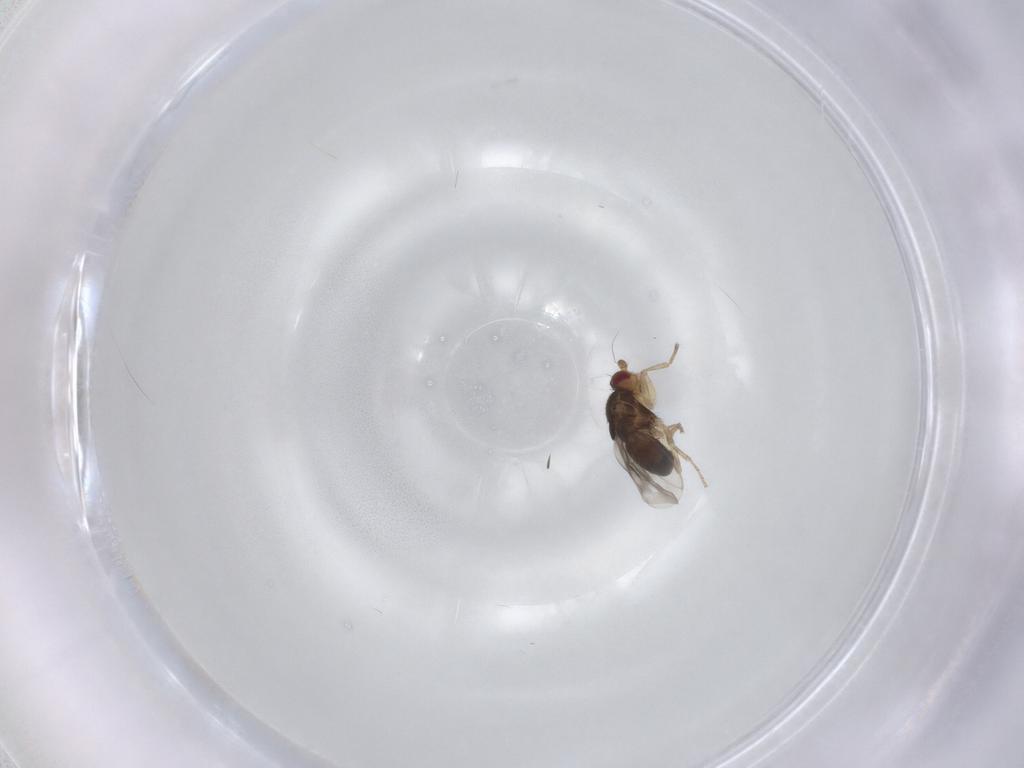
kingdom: Animalia
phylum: Arthropoda
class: Insecta
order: Diptera
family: Sphaeroceridae
